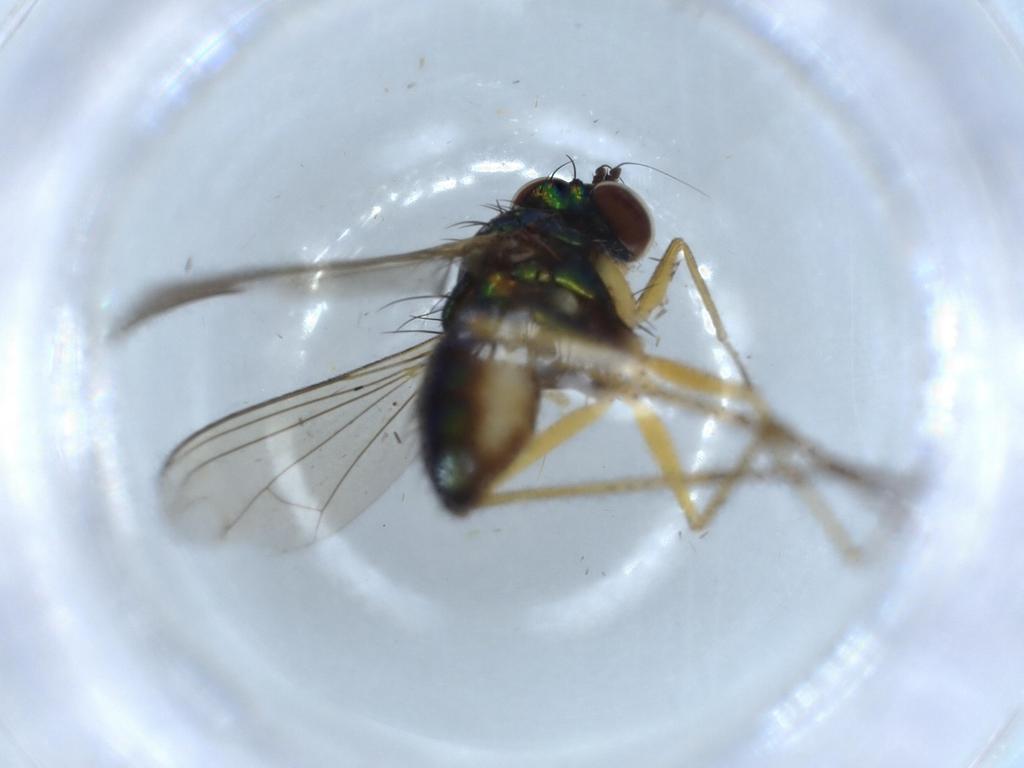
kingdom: Animalia
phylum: Arthropoda
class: Insecta
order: Diptera
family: Dolichopodidae
